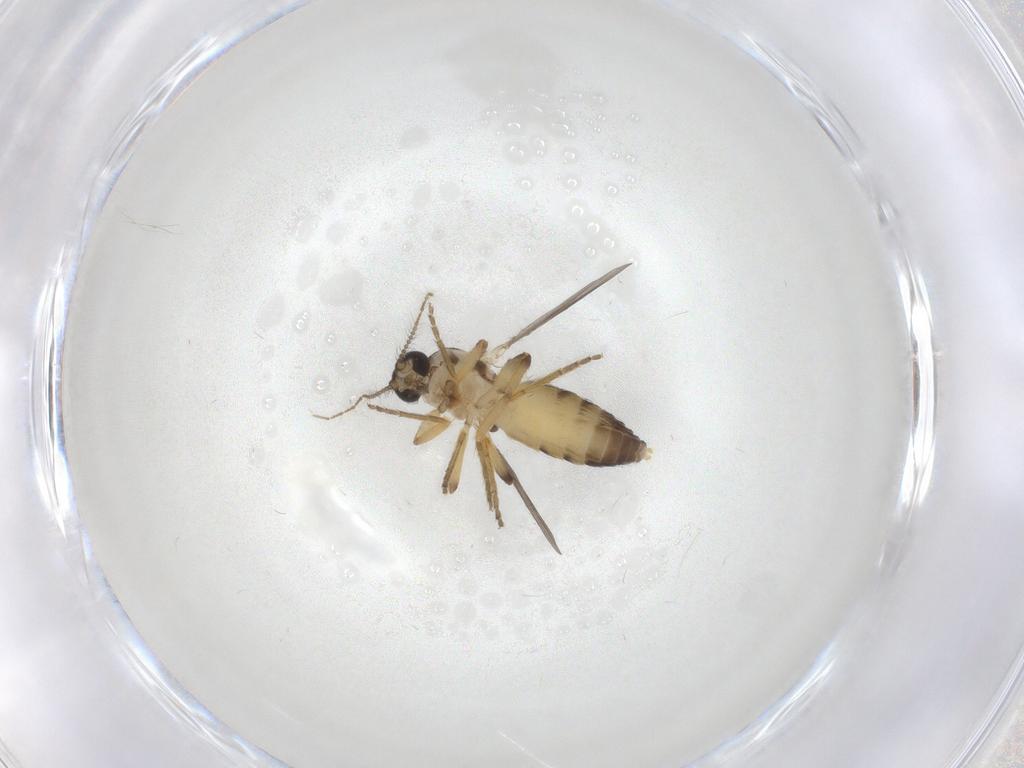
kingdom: Animalia
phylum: Arthropoda
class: Insecta
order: Diptera
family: Ceratopogonidae
